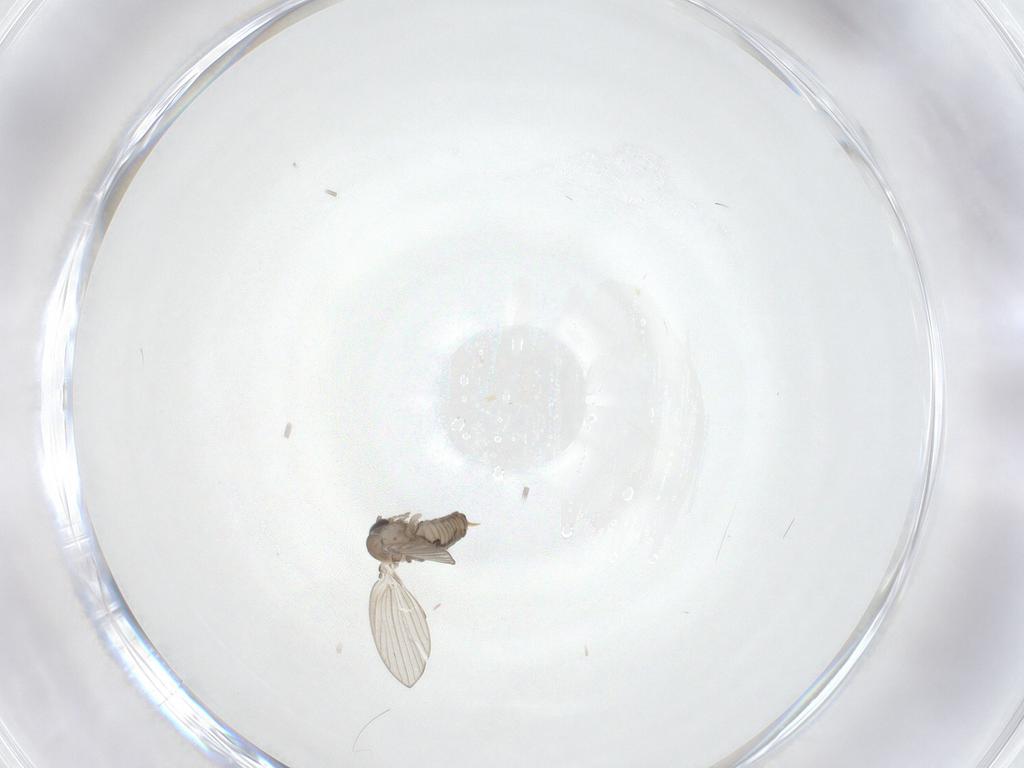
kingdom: Animalia
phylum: Arthropoda
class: Insecta
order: Diptera
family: Psychodidae
